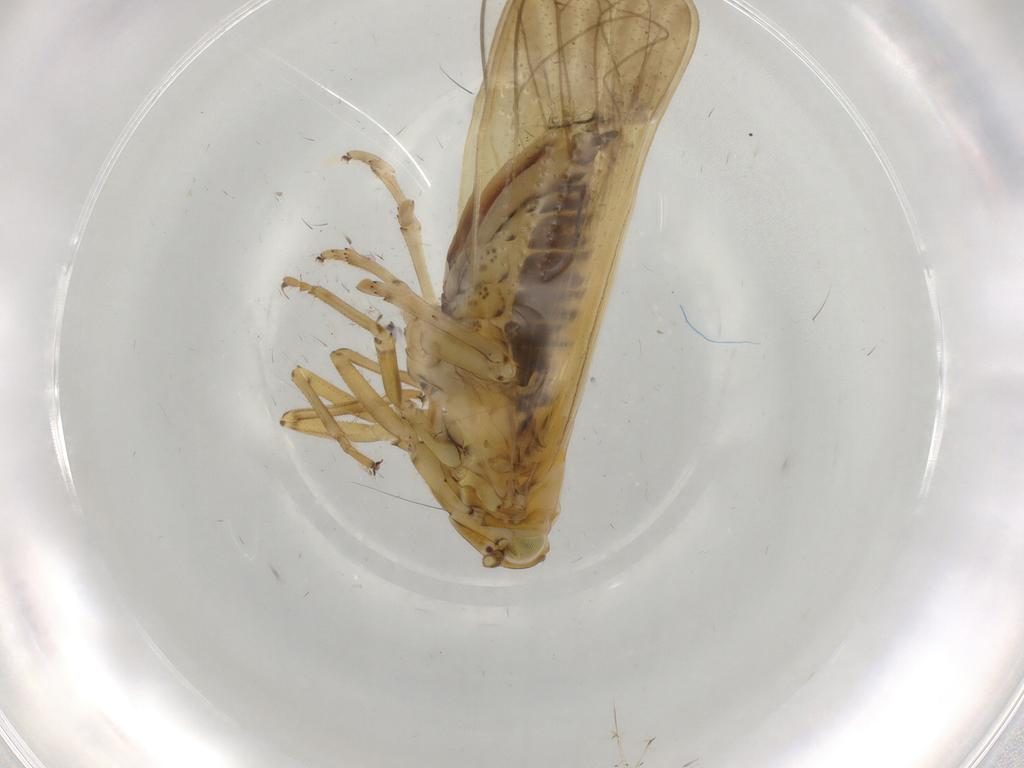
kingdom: Animalia
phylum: Arthropoda
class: Insecta
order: Hemiptera
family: Delphacidae
